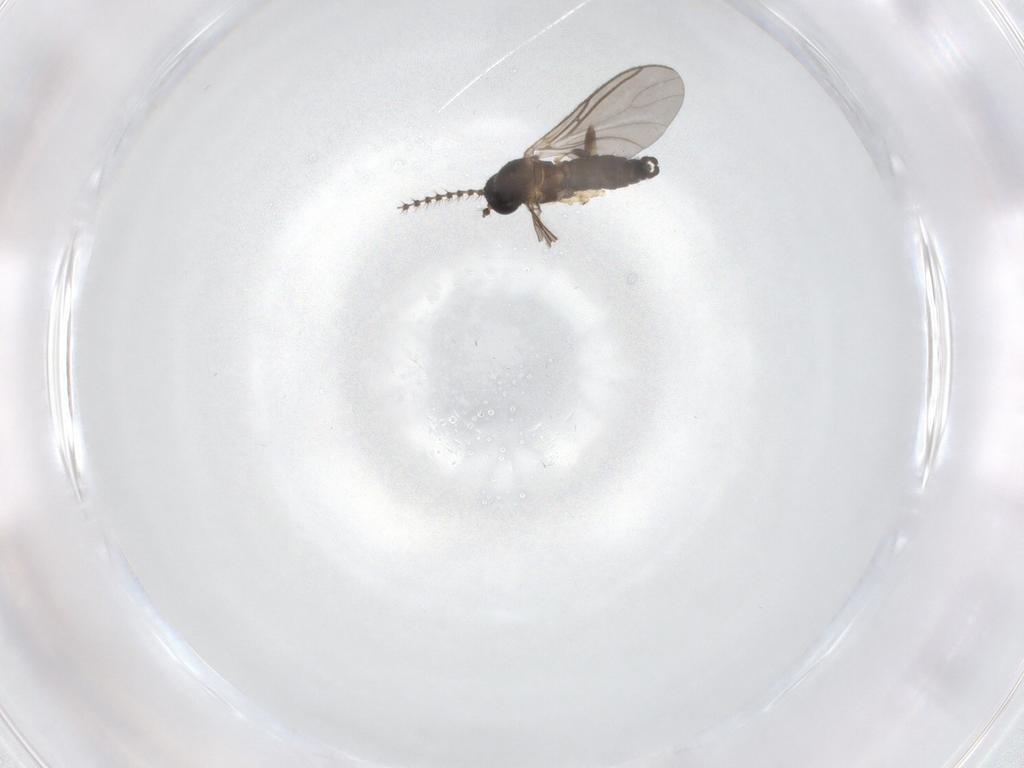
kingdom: Animalia
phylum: Arthropoda
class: Insecta
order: Diptera
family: Sciaridae
